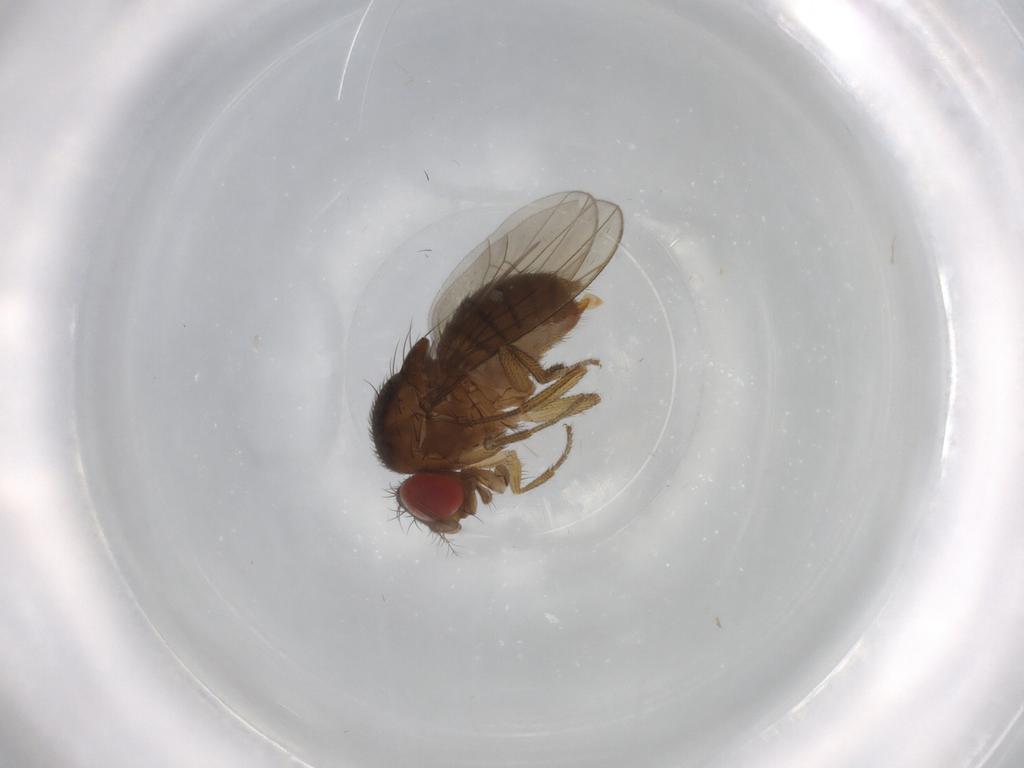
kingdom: Animalia
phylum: Arthropoda
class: Insecta
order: Diptera
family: Drosophilidae
